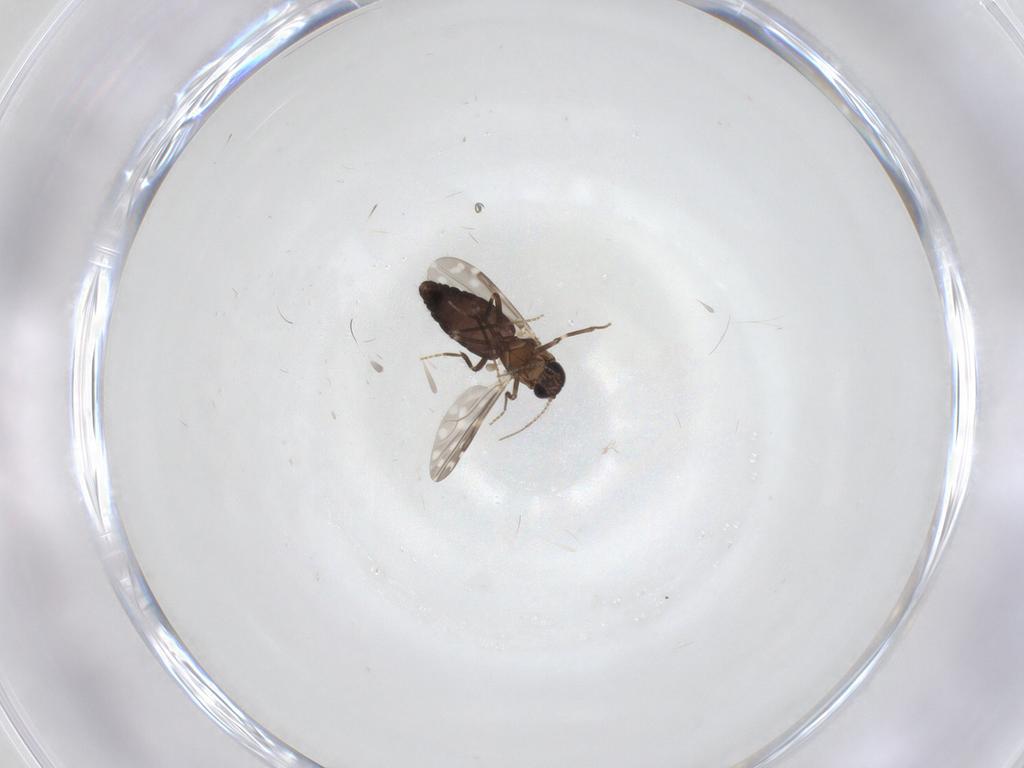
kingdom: Animalia
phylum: Arthropoda
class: Insecta
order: Diptera
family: Ceratopogonidae
